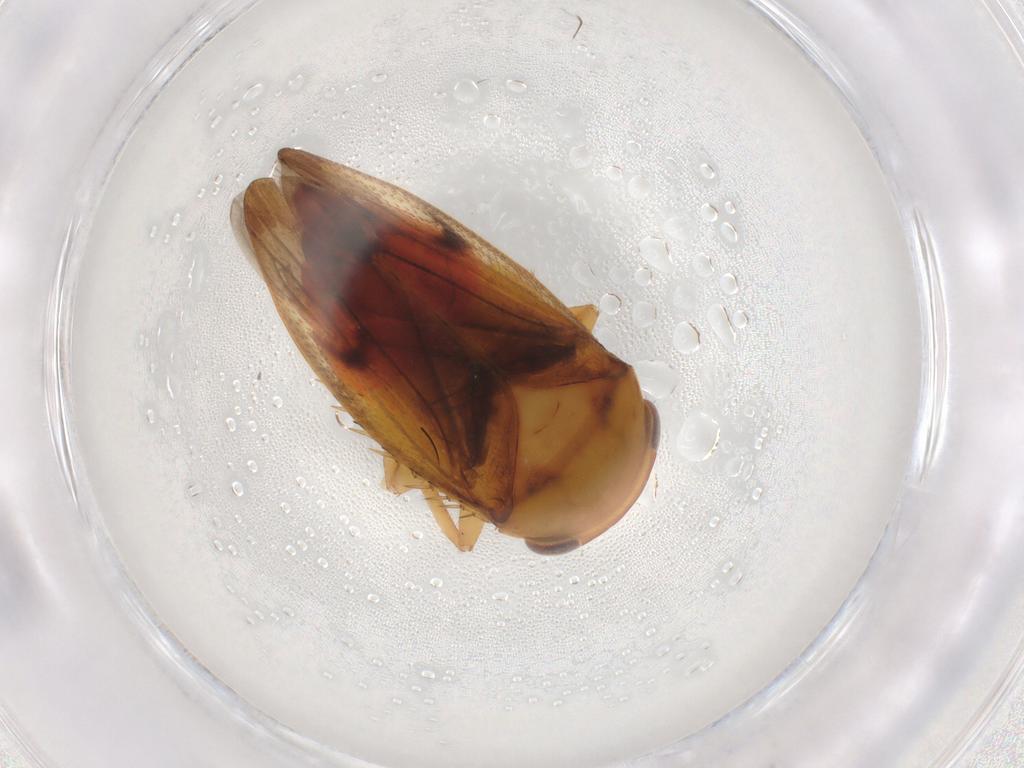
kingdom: Animalia
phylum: Arthropoda
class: Insecta
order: Hemiptera
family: Cicadellidae
